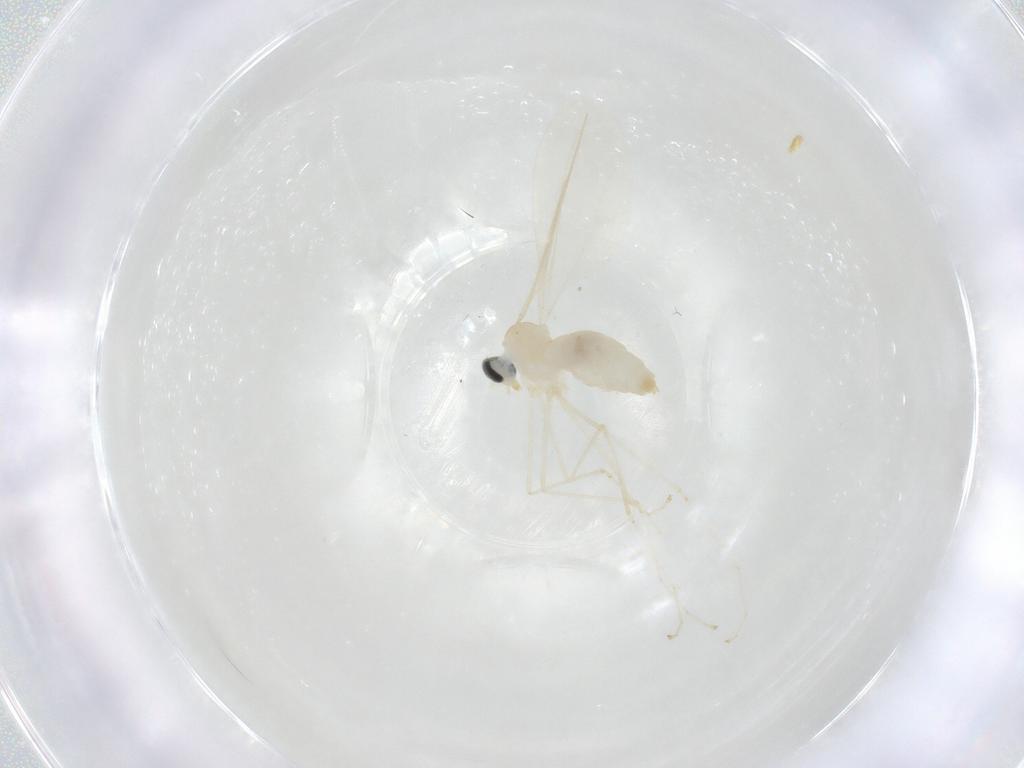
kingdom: Animalia
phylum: Arthropoda
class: Insecta
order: Diptera
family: Cecidomyiidae
